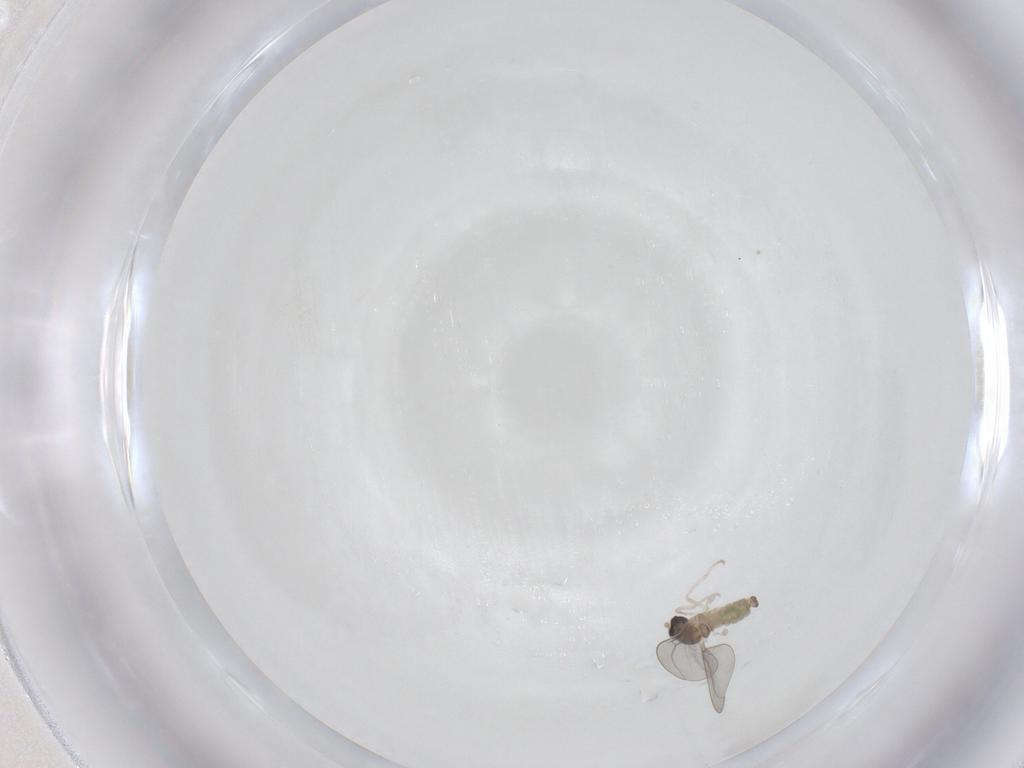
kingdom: Animalia
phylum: Arthropoda
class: Insecta
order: Diptera
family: Cecidomyiidae
